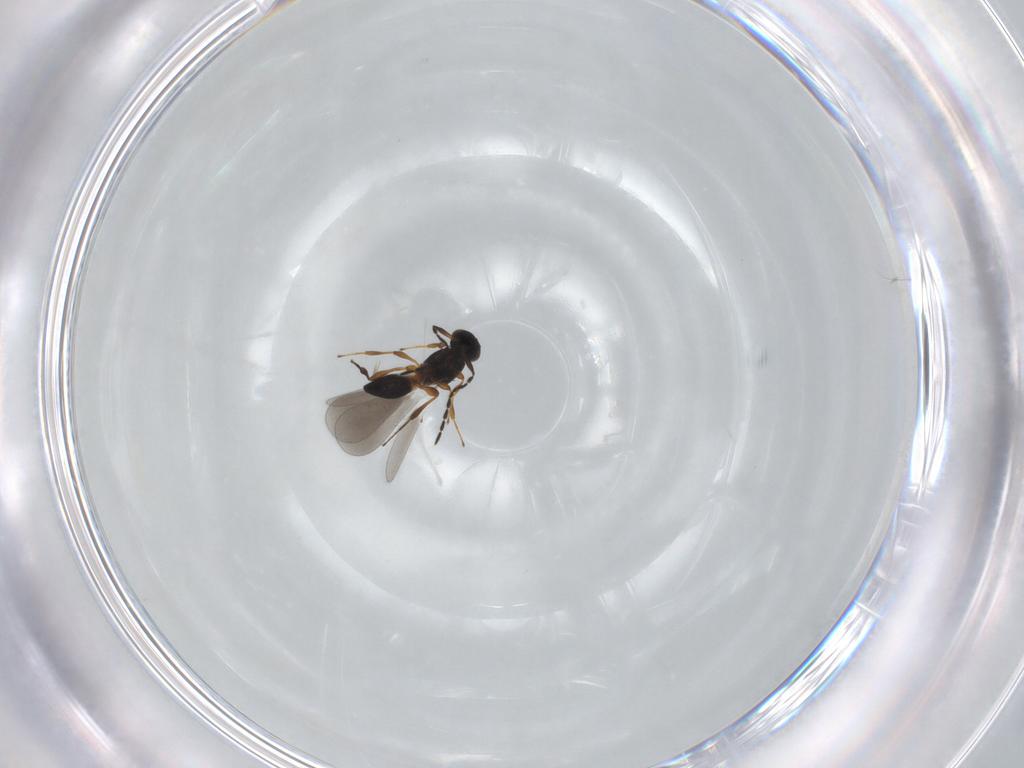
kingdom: Animalia
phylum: Arthropoda
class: Insecta
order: Hymenoptera
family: Platygastridae
